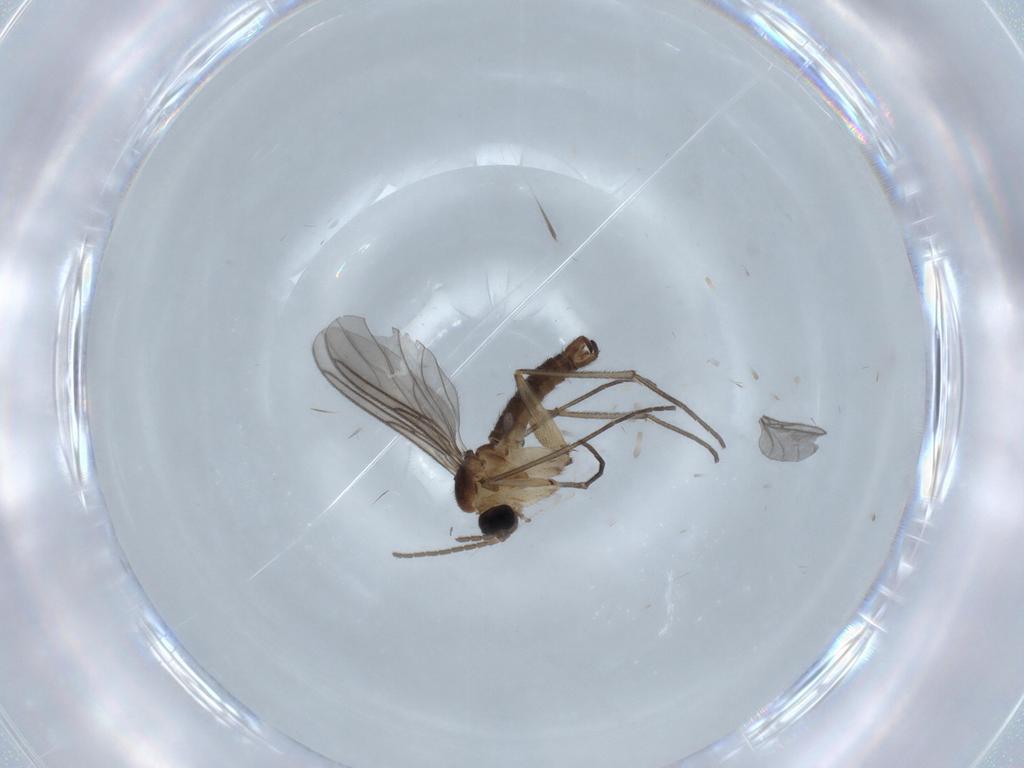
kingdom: Animalia
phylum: Arthropoda
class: Insecta
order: Diptera
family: Sciaridae
